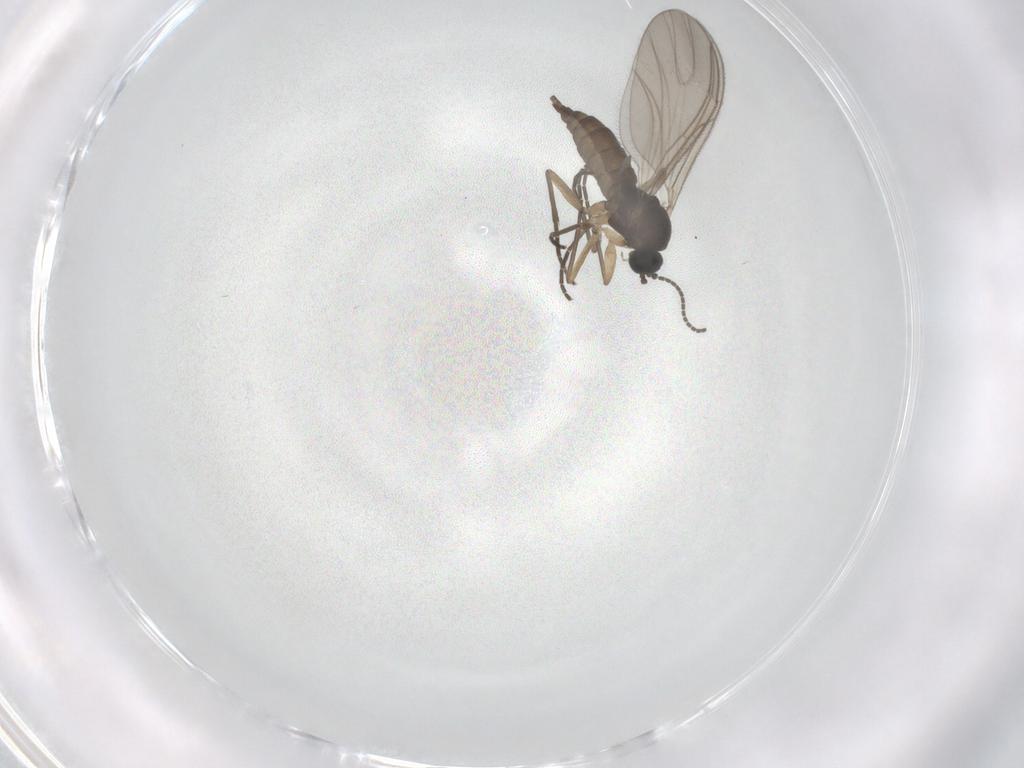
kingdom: Animalia
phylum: Arthropoda
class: Insecta
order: Diptera
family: Sciaridae
